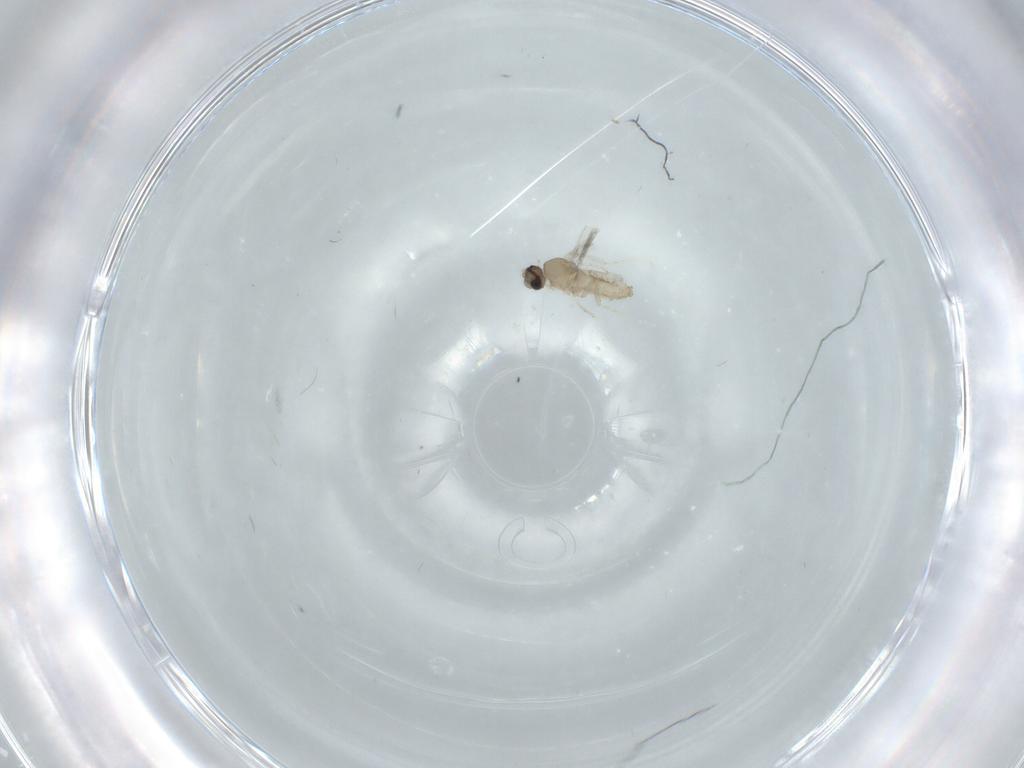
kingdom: Animalia
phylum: Arthropoda
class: Insecta
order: Diptera
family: Cecidomyiidae
